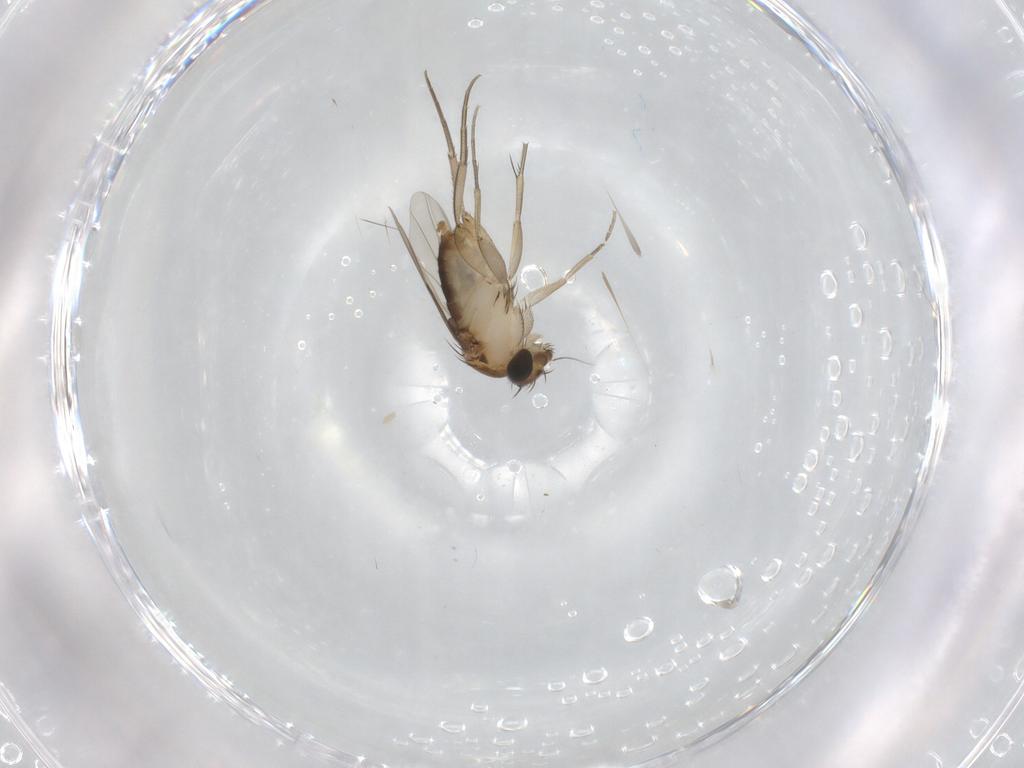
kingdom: Animalia
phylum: Arthropoda
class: Insecta
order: Diptera
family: Phoridae
